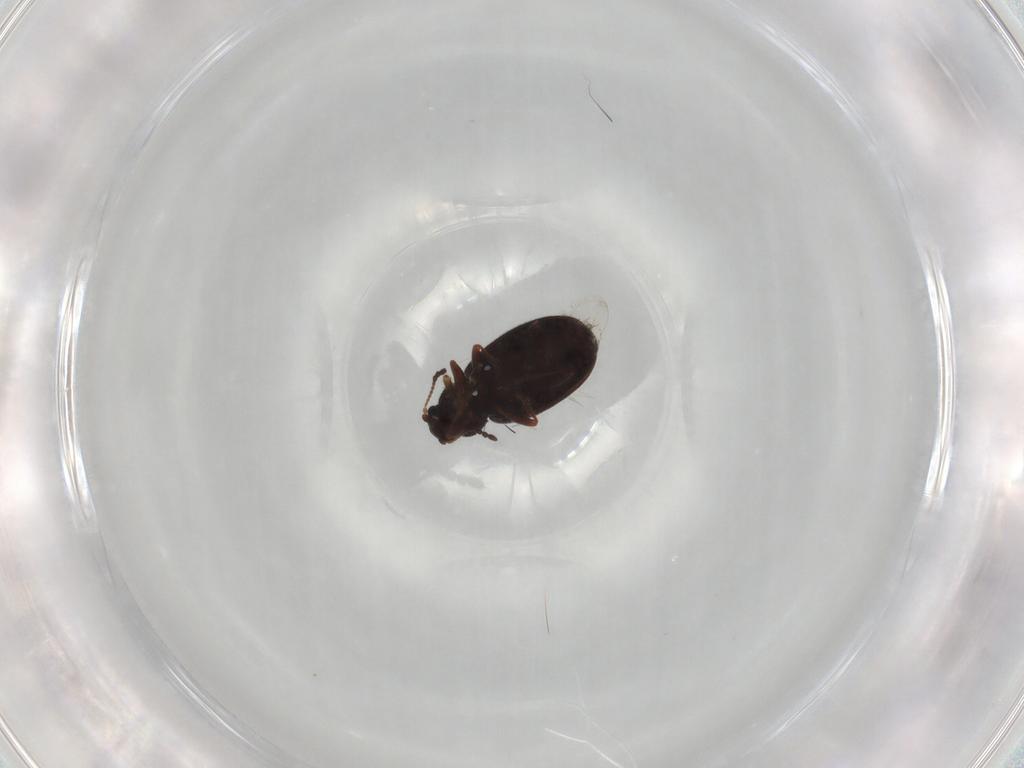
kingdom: Animalia
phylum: Arthropoda
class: Insecta
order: Coleoptera
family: Latridiidae
